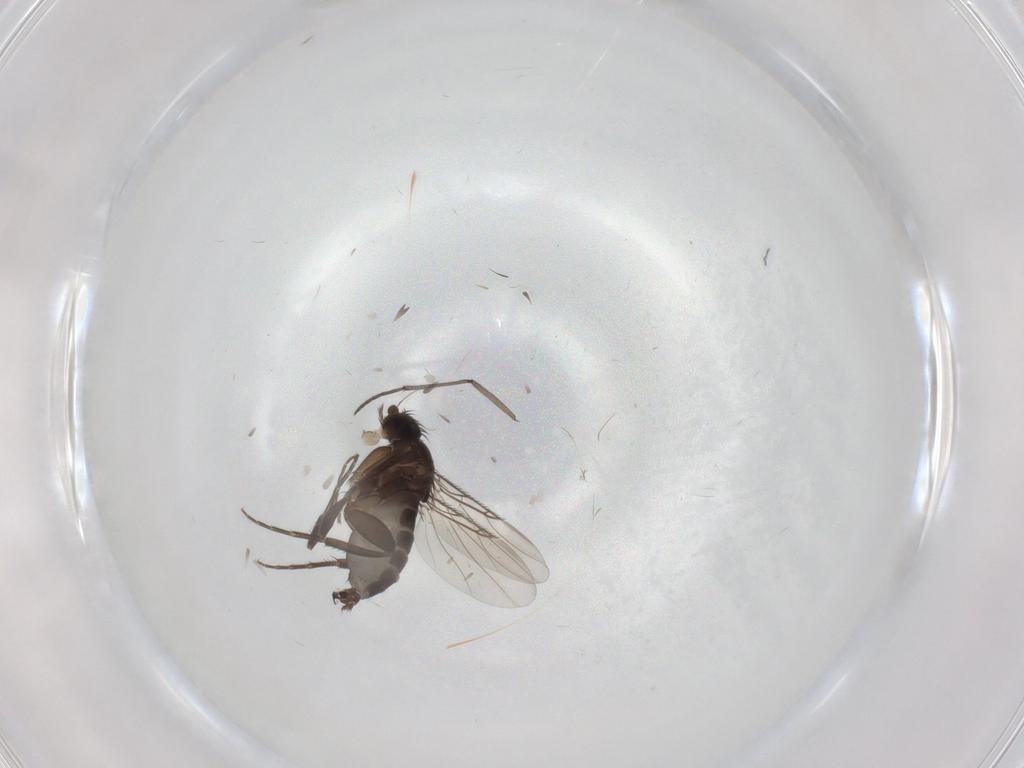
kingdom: Animalia
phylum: Arthropoda
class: Insecta
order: Diptera
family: Phoridae
